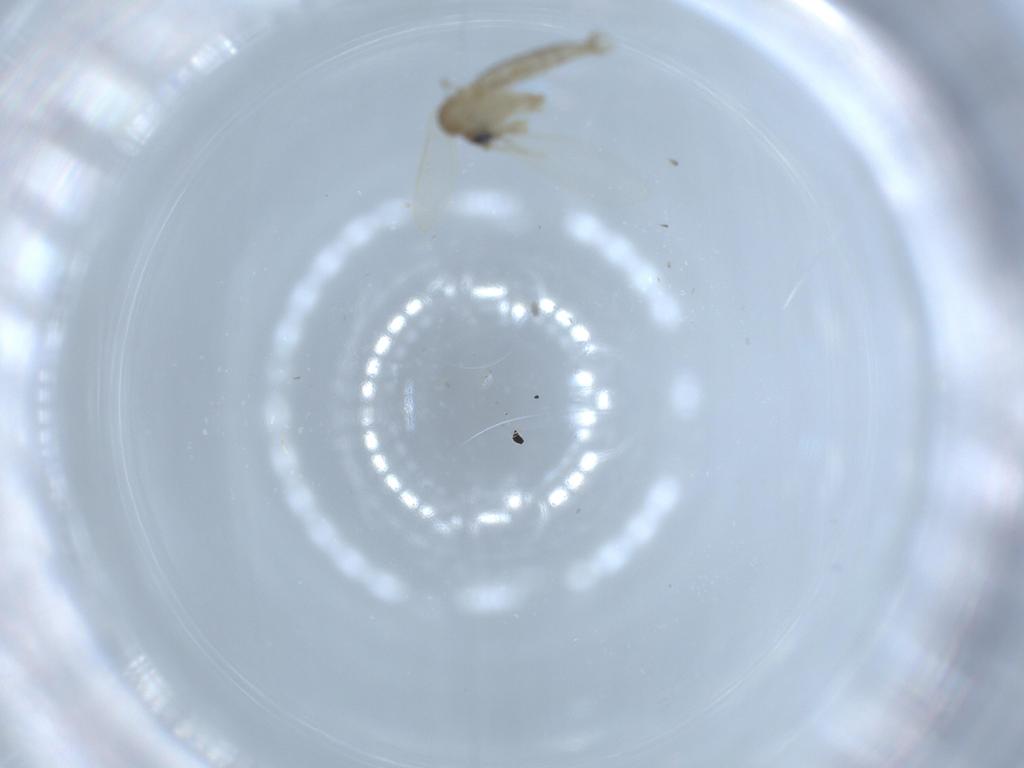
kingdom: Animalia
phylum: Arthropoda
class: Insecta
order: Diptera
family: Psychodidae
